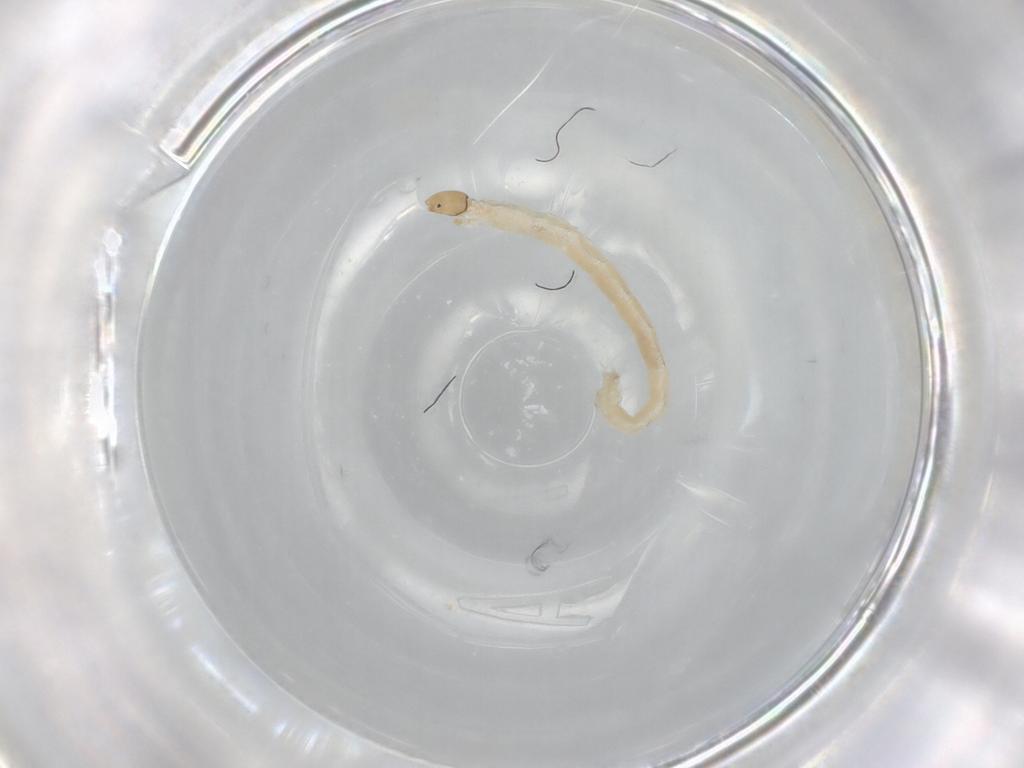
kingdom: Animalia
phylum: Arthropoda
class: Insecta
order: Diptera
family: Chironomidae
